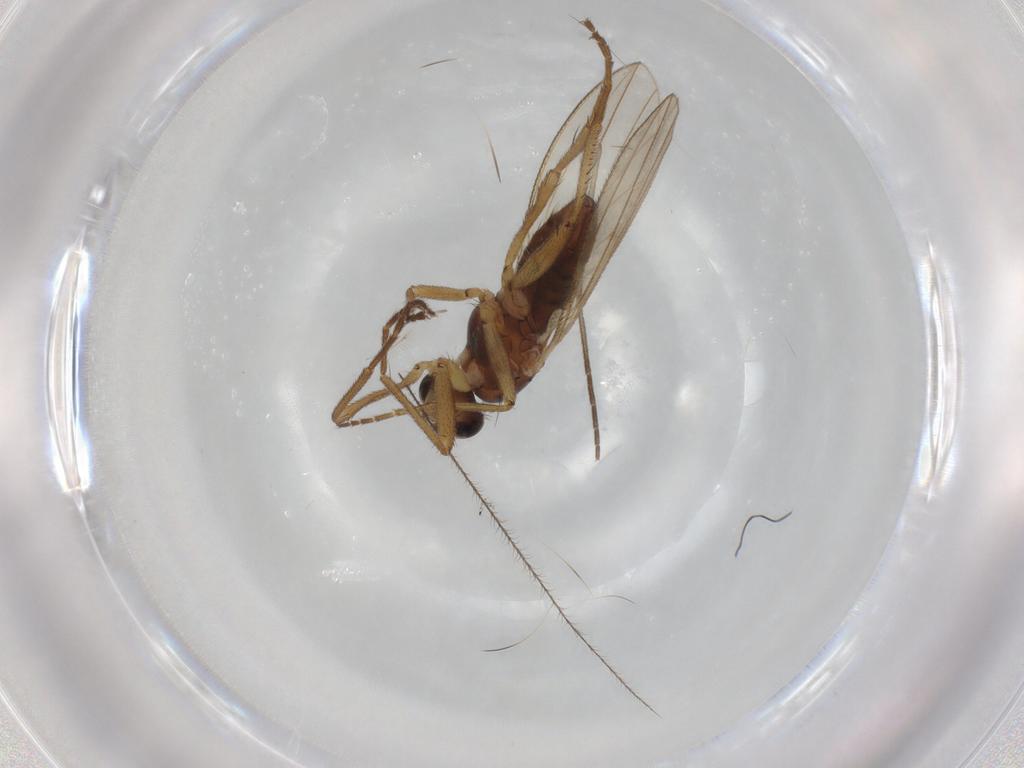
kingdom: Animalia
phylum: Arthropoda
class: Insecta
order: Diptera
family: Lonchopteridae
